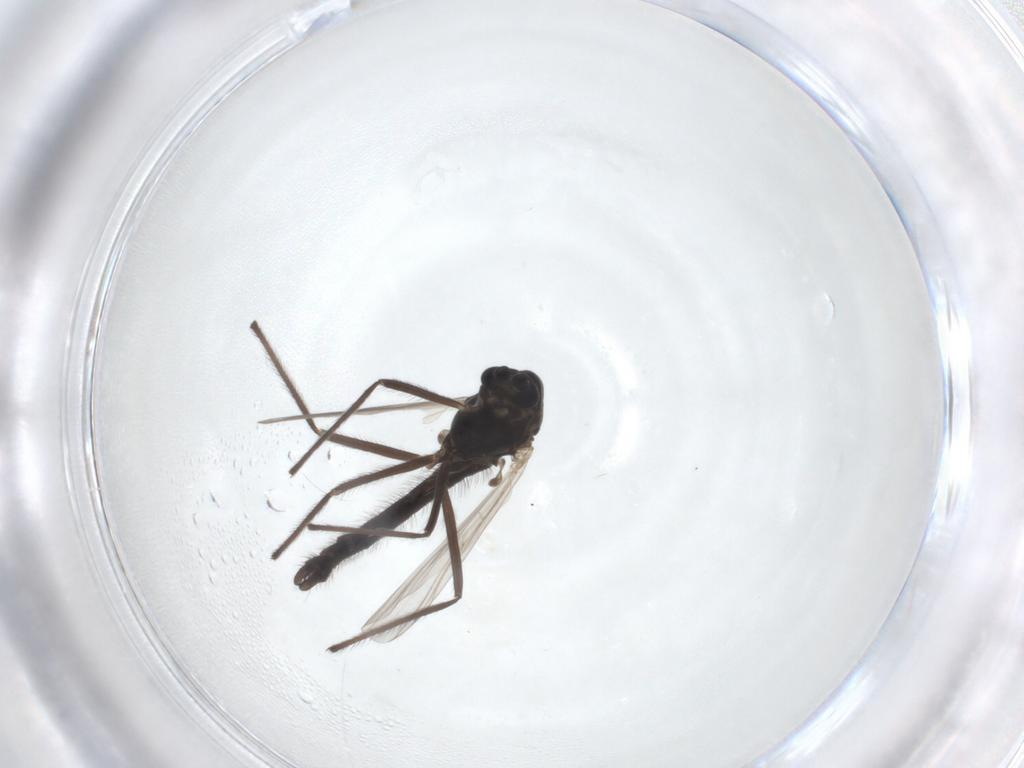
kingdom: Animalia
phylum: Arthropoda
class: Insecta
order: Diptera
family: Chironomidae
